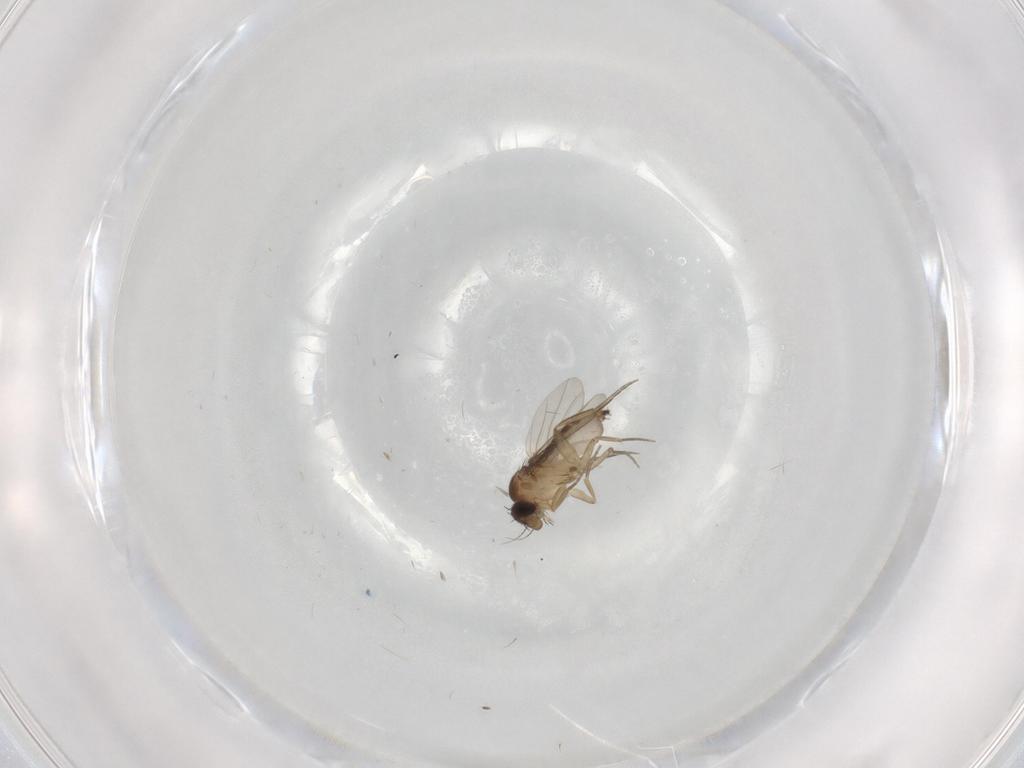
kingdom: Animalia
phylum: Arthropoda
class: Insecta
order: Diptera
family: Phoridae
